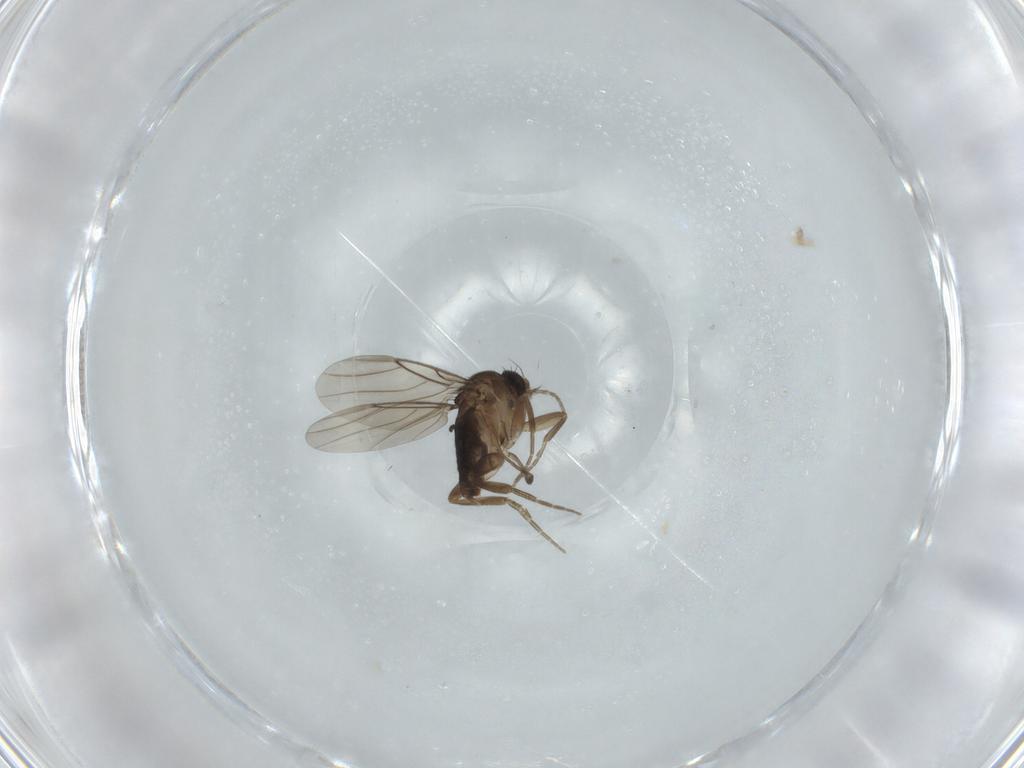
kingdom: Animalia
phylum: Arthropoda
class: Insecta
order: Diptera
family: Phoridae
